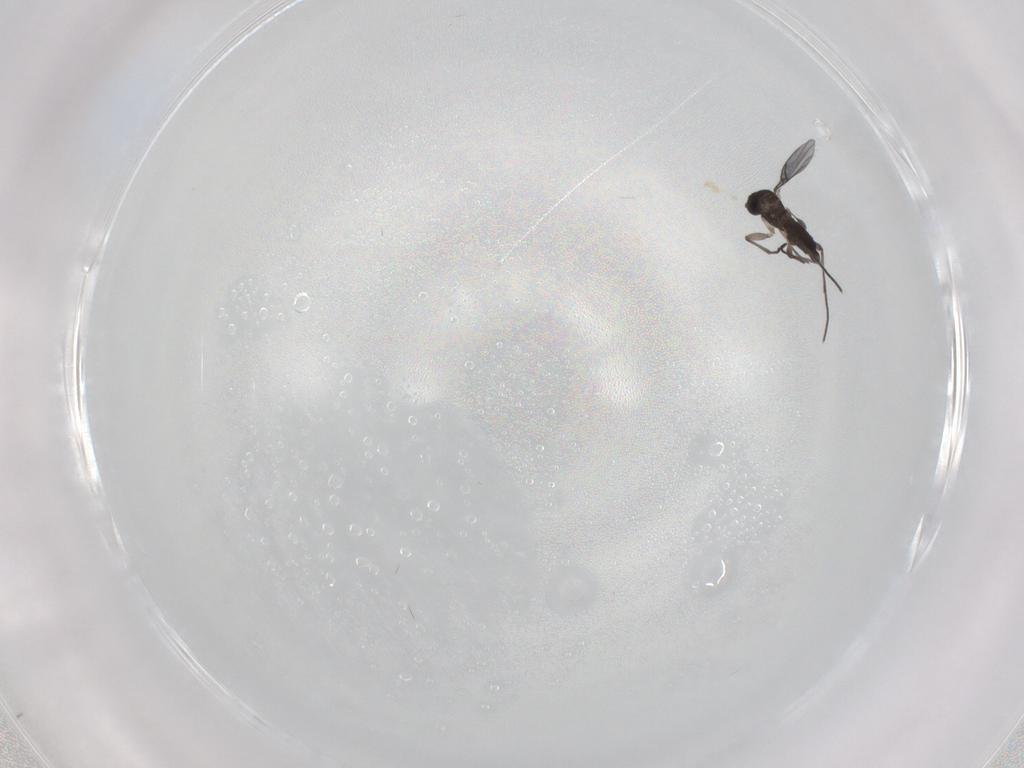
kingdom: Animalia
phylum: Arthropoda
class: Insecta
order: Diptera
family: Sciaridae
